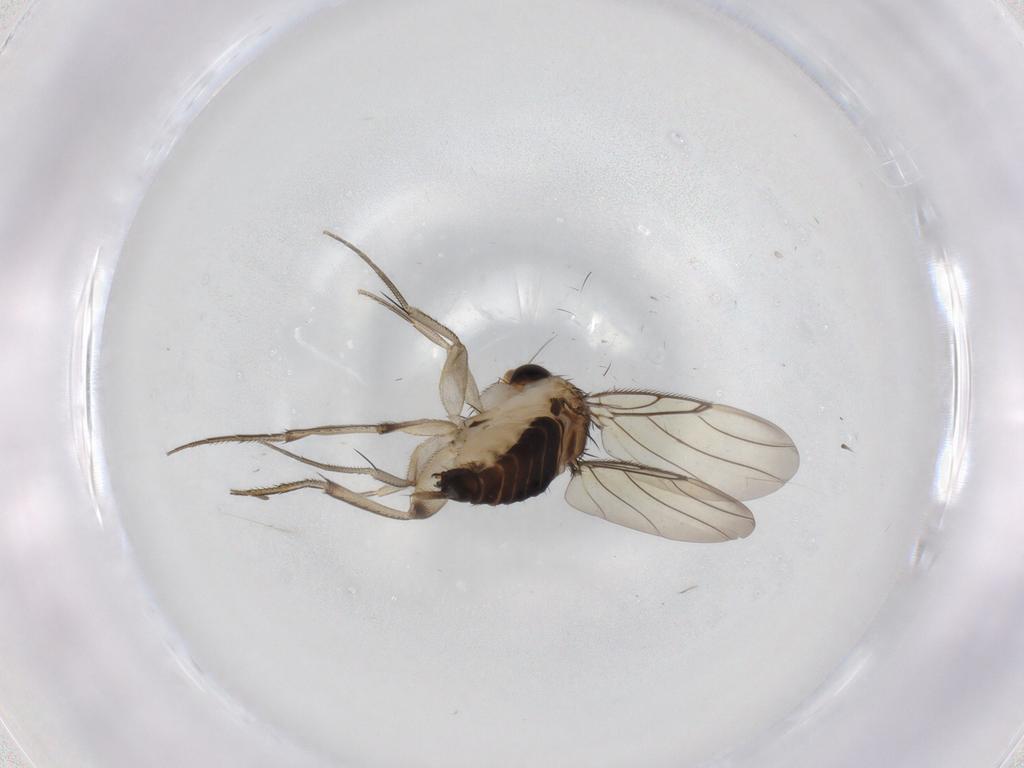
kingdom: Animalia
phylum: Arthropoda
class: Insecta
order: Diptera
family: Phoridae
